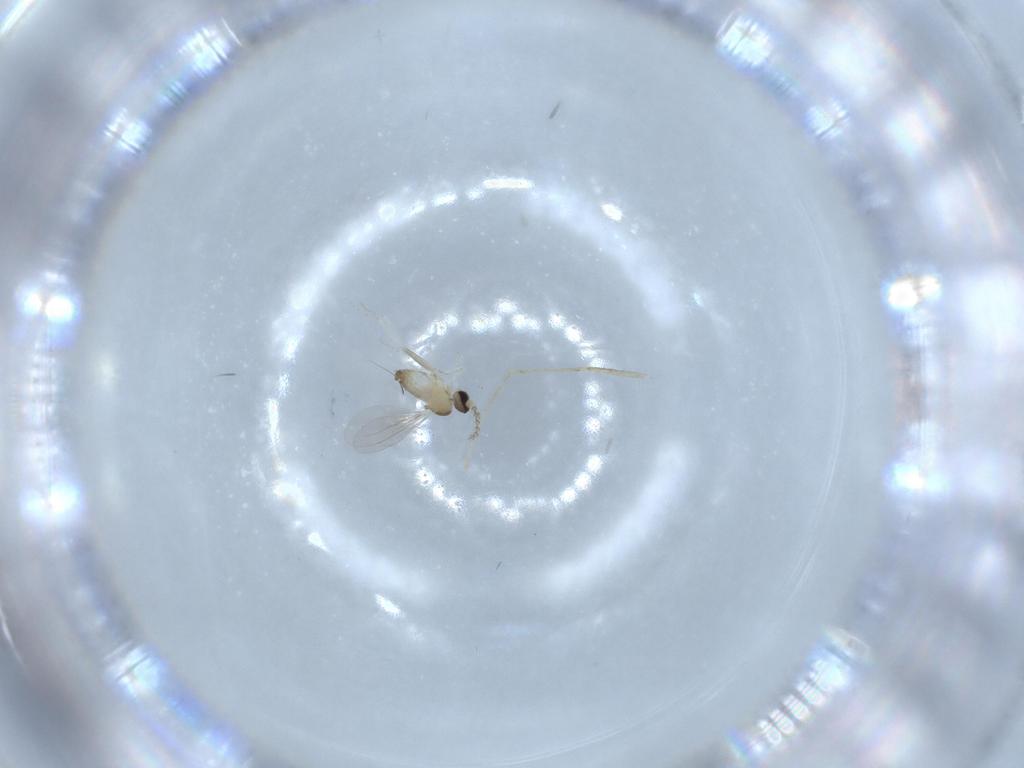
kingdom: Animalia
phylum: Arthropoda
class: Insecta
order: Diptera
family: Cecidomyiidae
